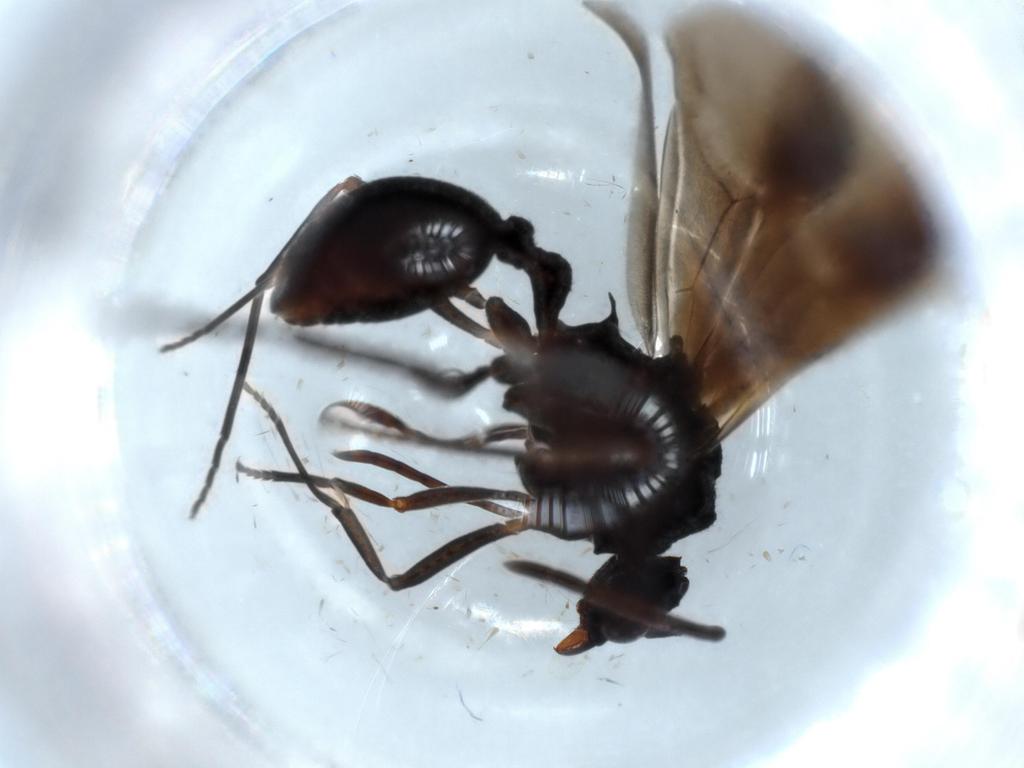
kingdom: Animalia
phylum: Arthropoda
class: Insecta
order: Hymenoptera
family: Formicidae
